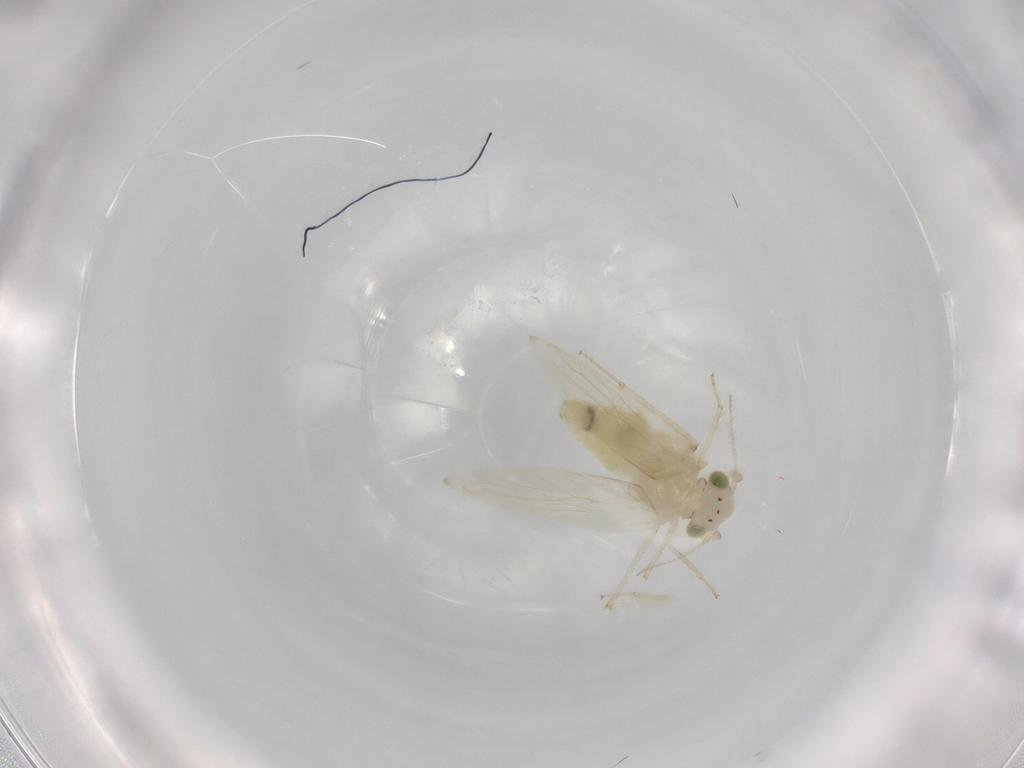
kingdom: Animalia
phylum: Arthropoda
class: Insecta
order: Psocodea
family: Lepidopsocidae
